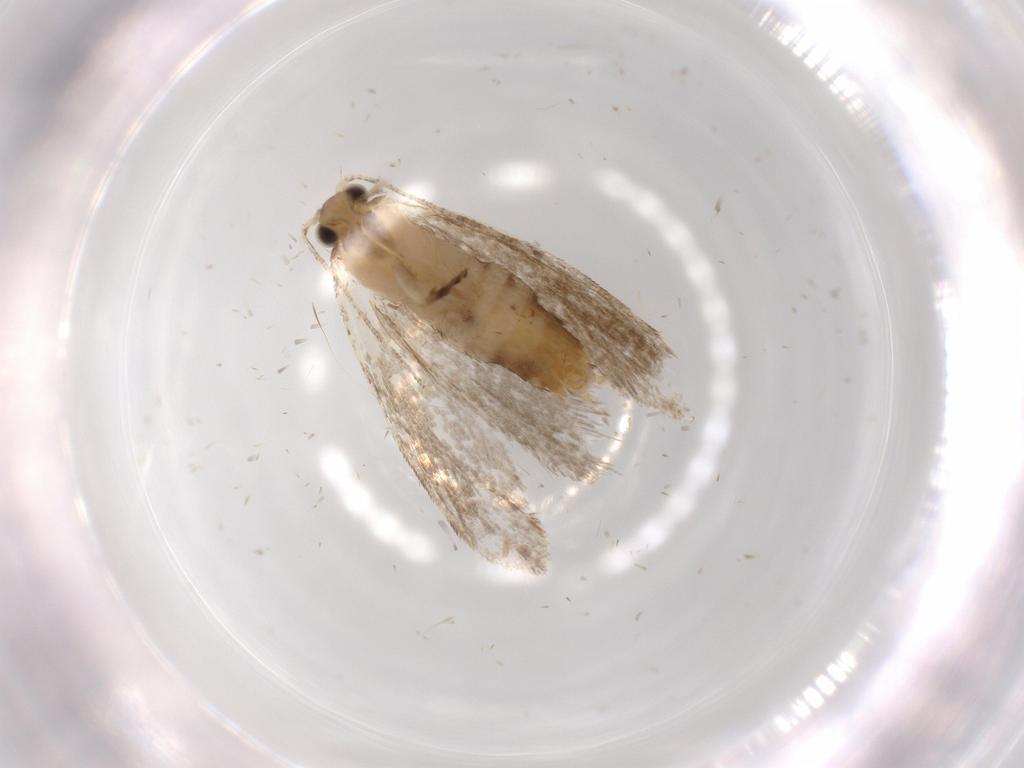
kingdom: Animalia
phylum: Arthropoda
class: Insecta
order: Lepidoptera
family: Tineidae
